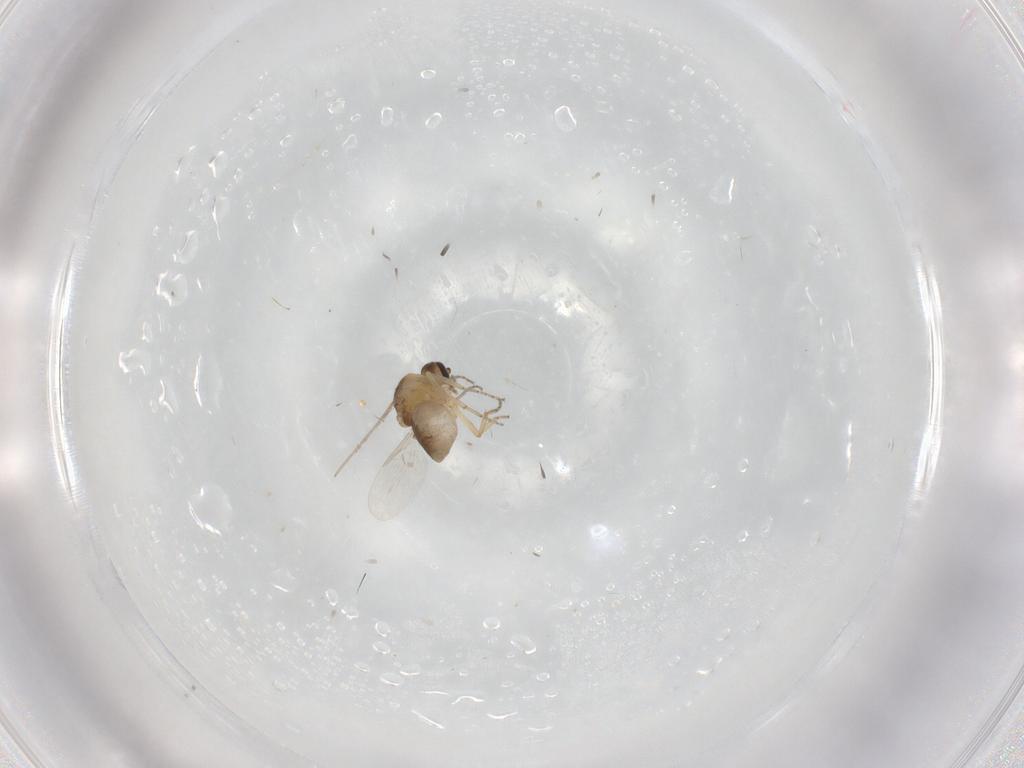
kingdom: Animalia
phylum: Arthropoda
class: Insecta
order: Diptera
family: Ceratopogonidae
